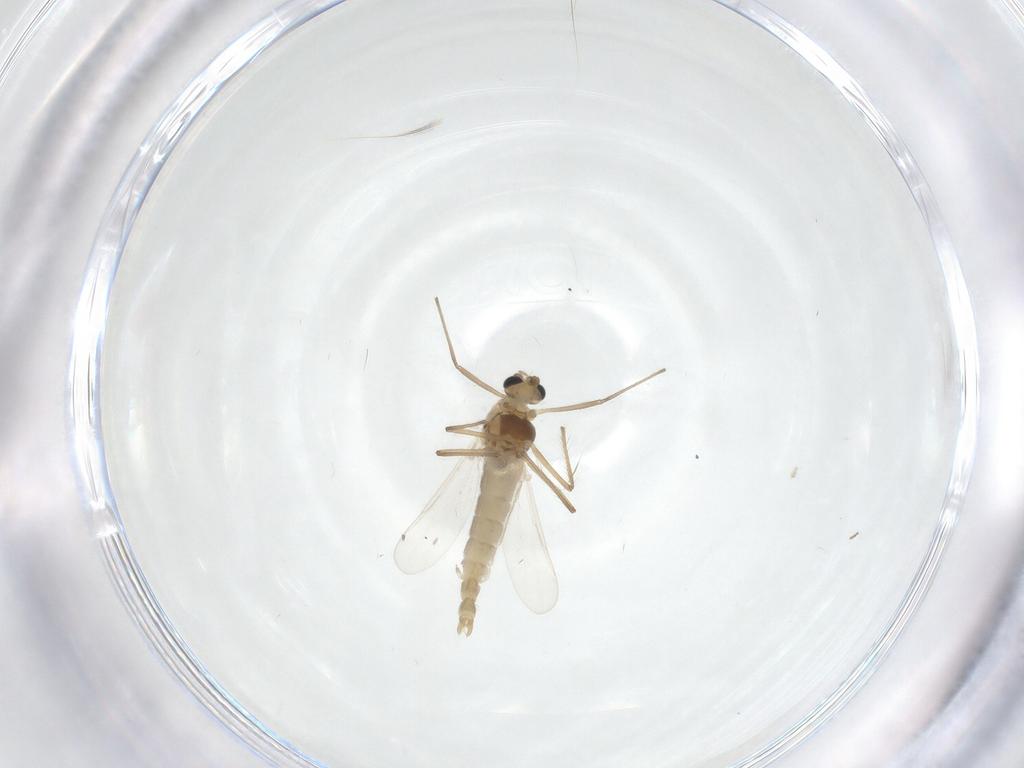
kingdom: Animalia
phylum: Arthropoda
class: Insecta
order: Diptera
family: Chironomidae
